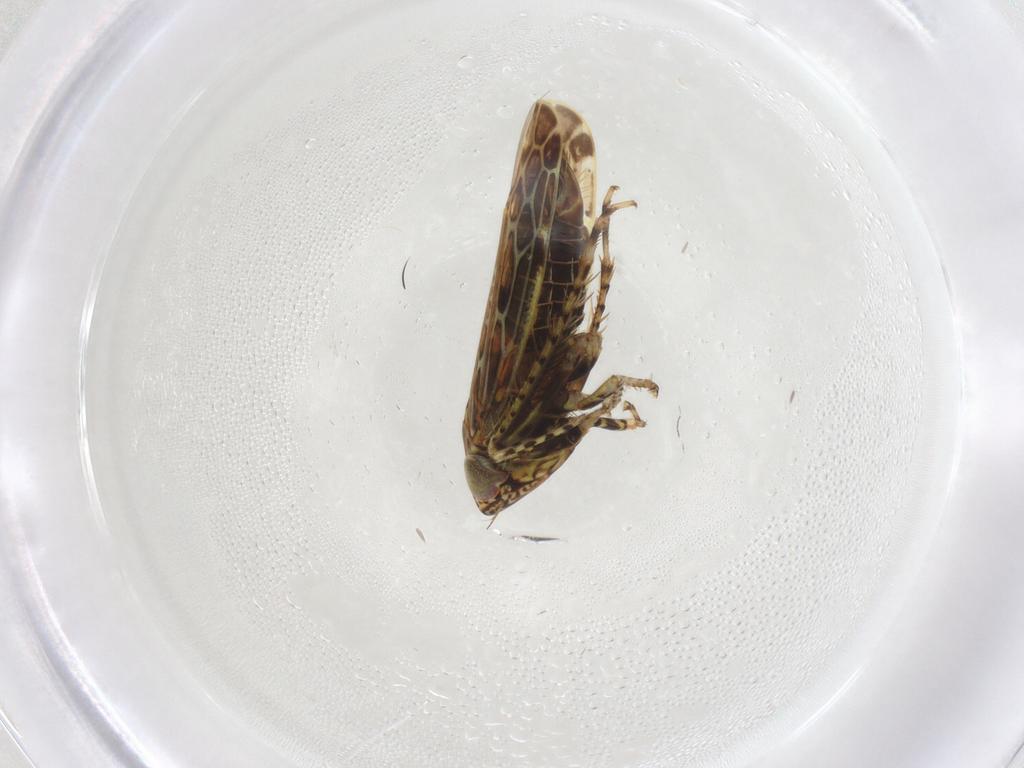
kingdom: Animalia
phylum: Arthropoda
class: Insecta
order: Hemiptera
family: Cicadellidae
